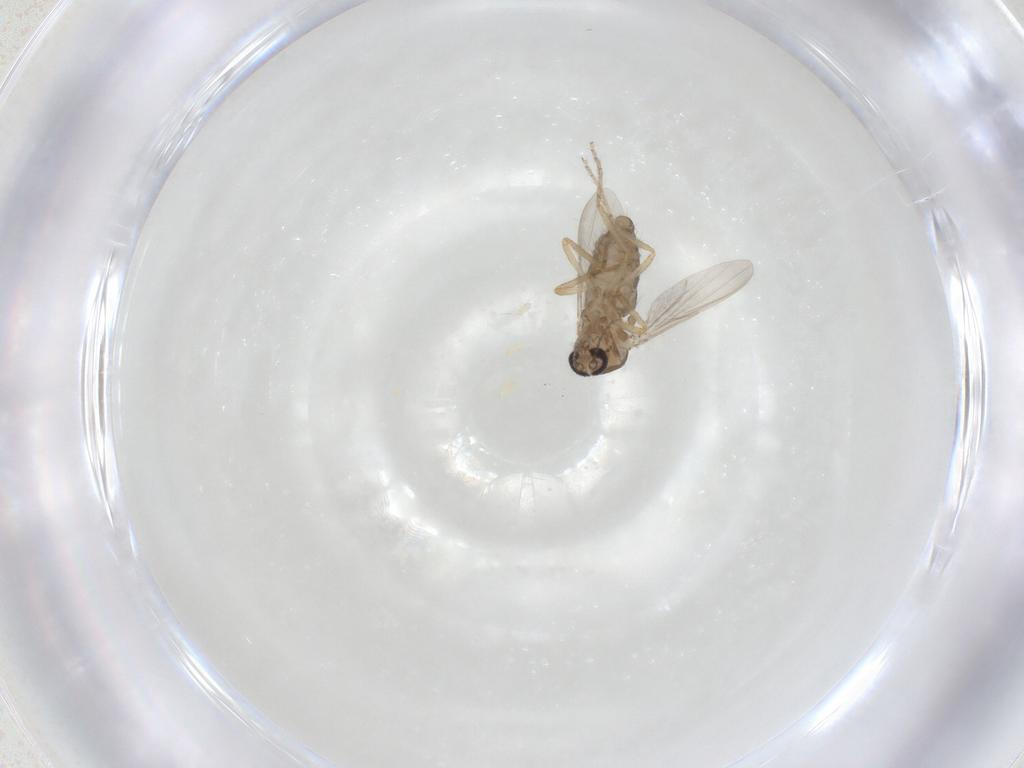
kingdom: Animalia
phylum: Arthropoda
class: Insecta
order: Diptera
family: Ceratopogonidae
